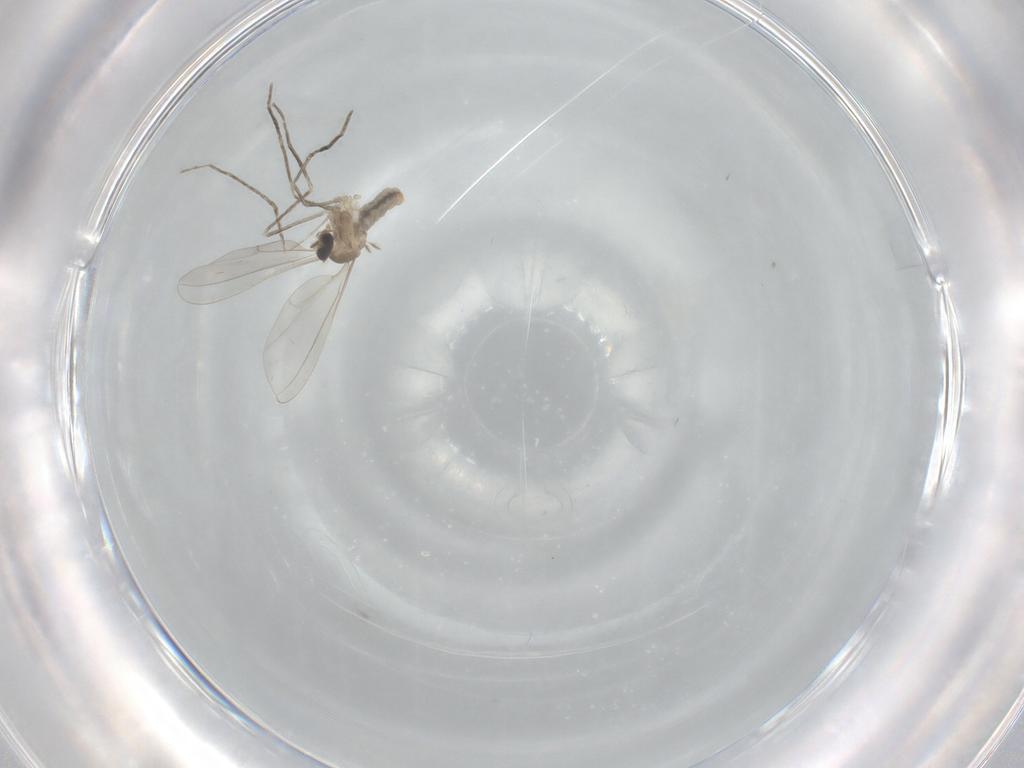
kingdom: Animalia
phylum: Arthropoda
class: Insecta
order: Diptera
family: Cecidomyiidae
